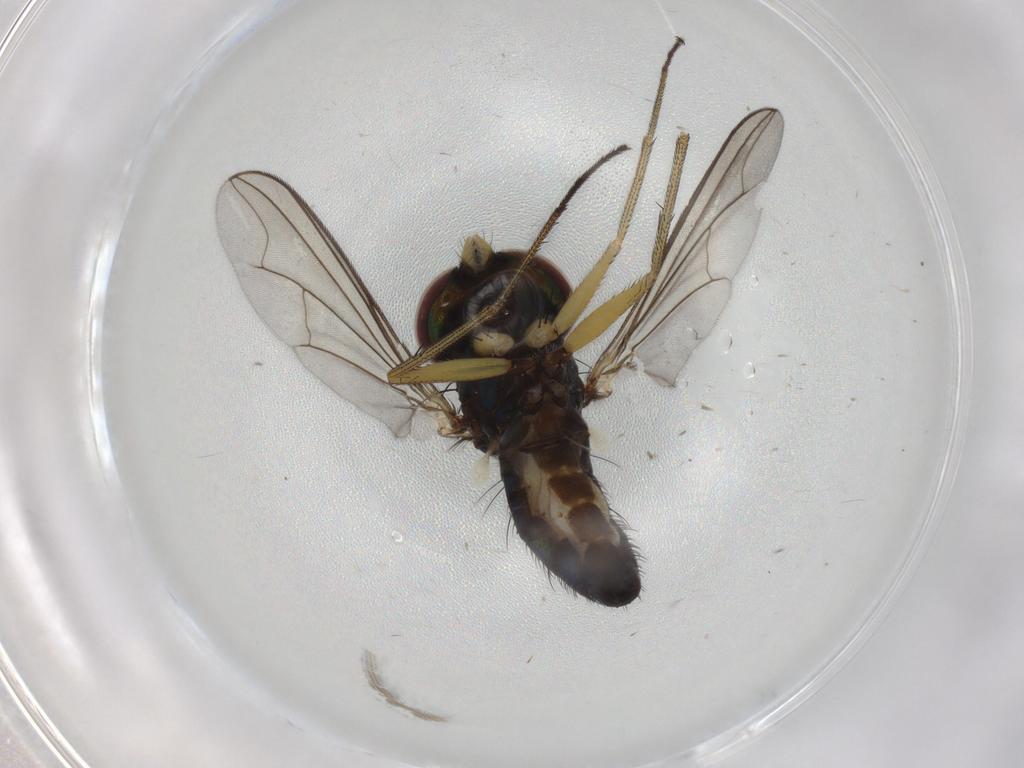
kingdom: Animalia
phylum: Arthropoda
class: Insecta
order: Diptera
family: Dolichopodidae
